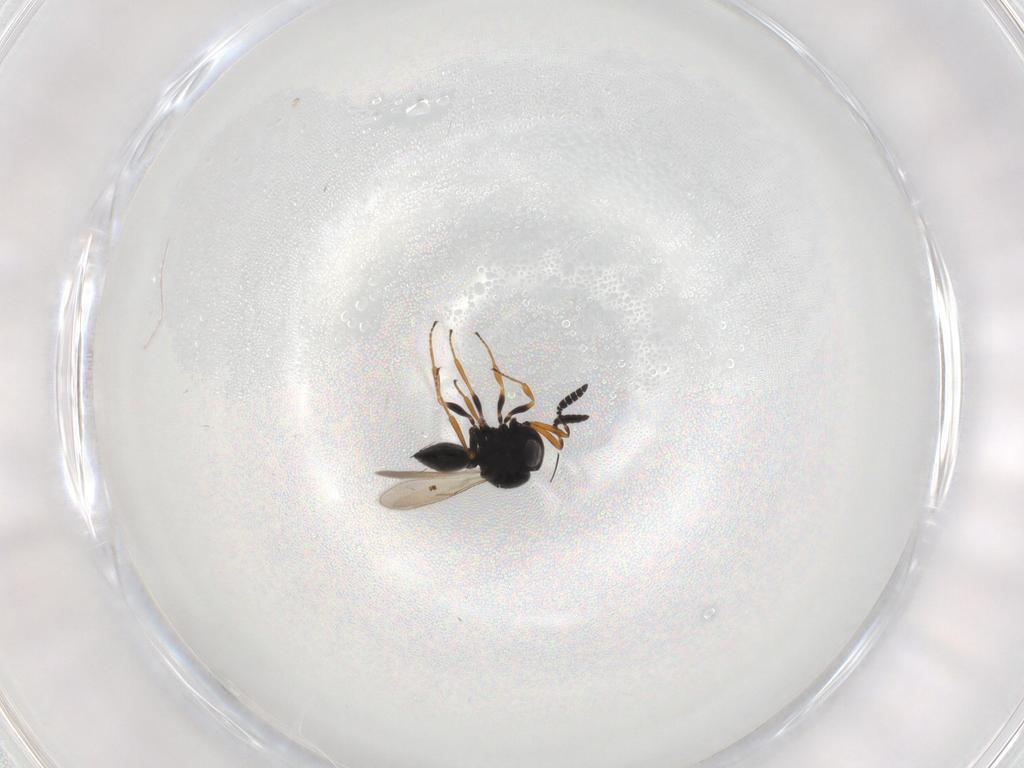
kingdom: Animalia
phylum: Arthropoda
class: Insecta
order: Hymenoptera
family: Scelionidae
